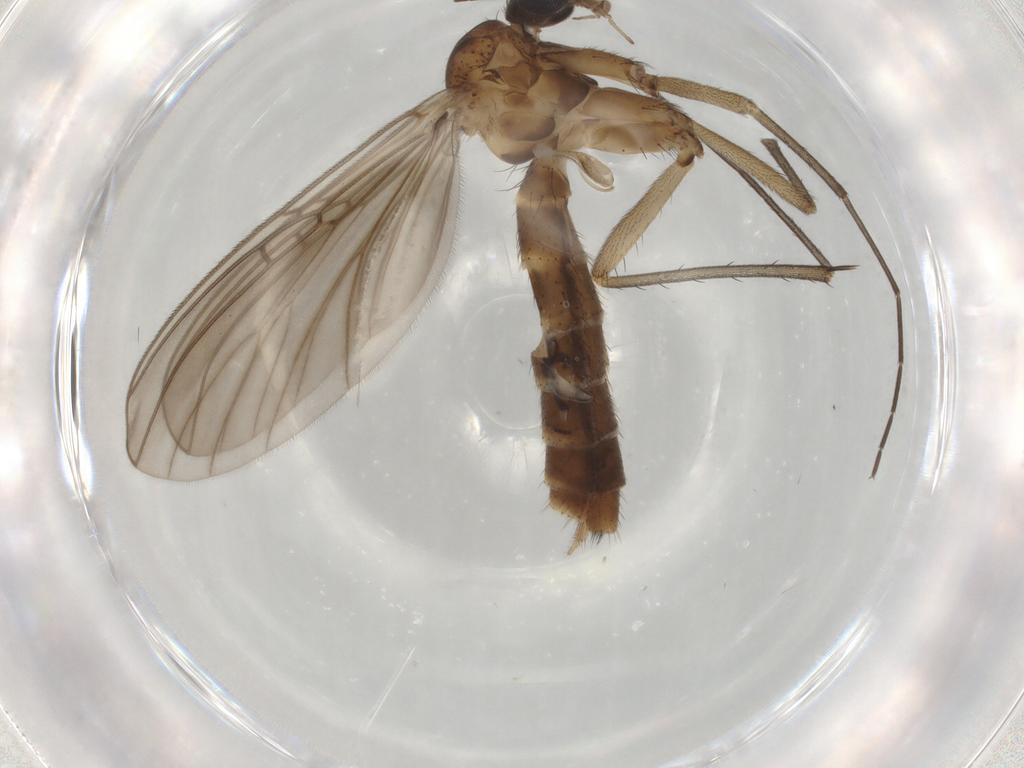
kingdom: Animalia
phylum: Arthropoda
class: Insecta
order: Diptera
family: Mycetophilidae
